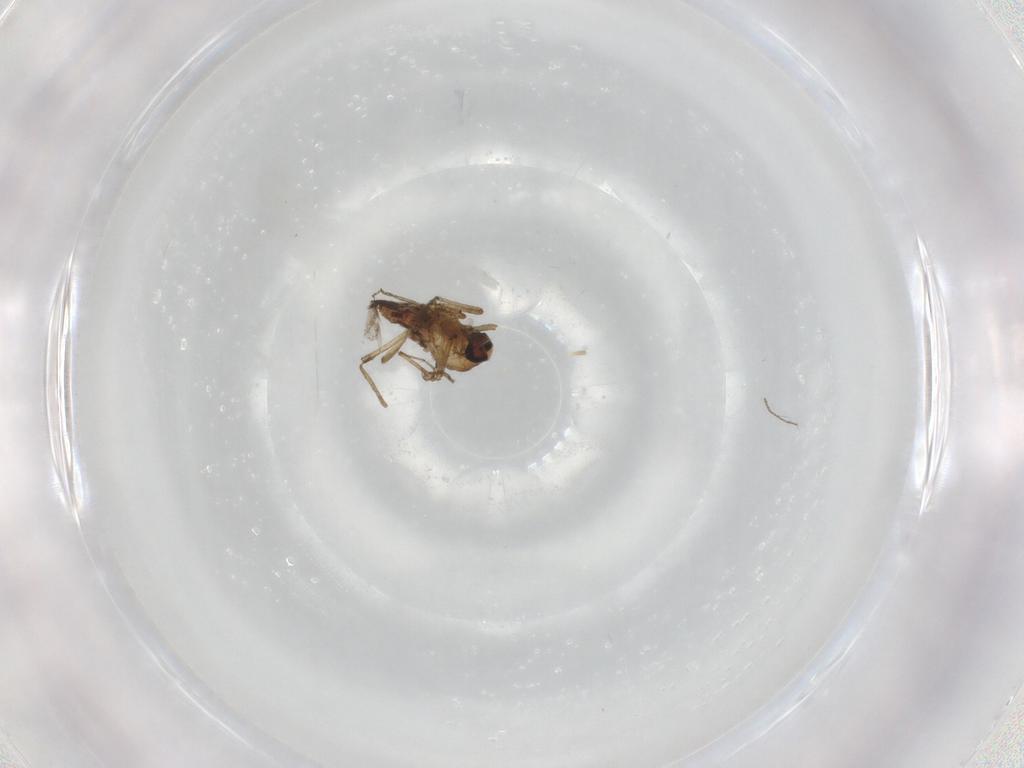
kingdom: Animalia
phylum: Arthropoda
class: Insecta
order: Diptera
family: Ceratopogonidae
